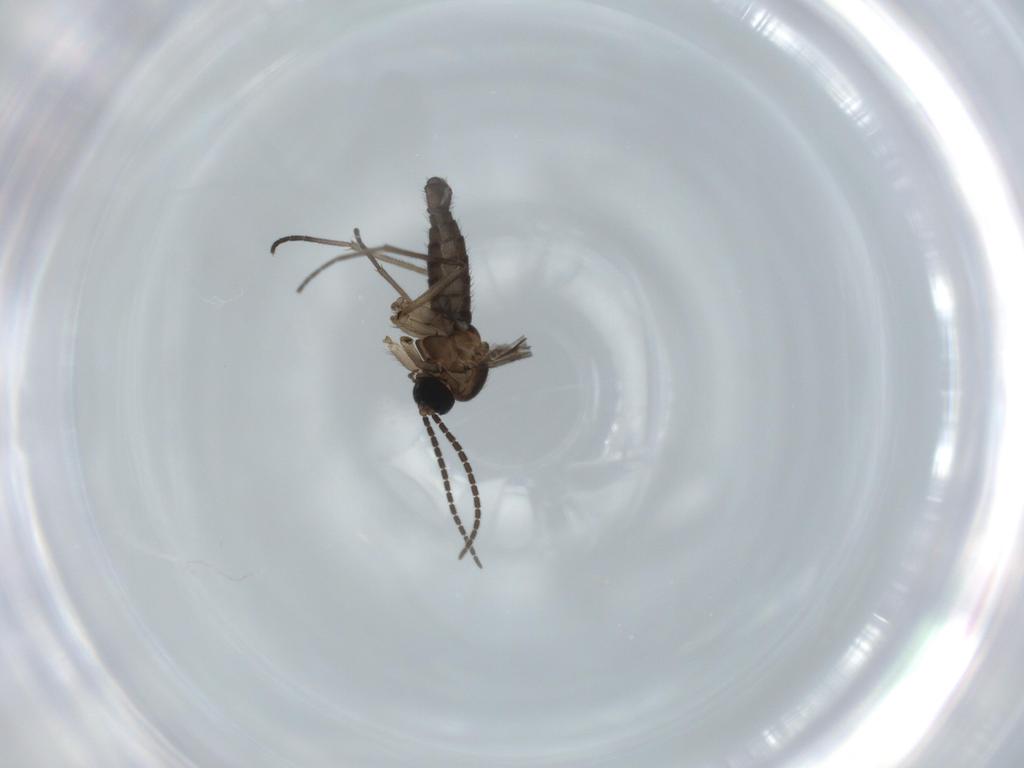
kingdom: Animalia
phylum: Arthropoda
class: Insecta
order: Diptera
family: Sciaridae
